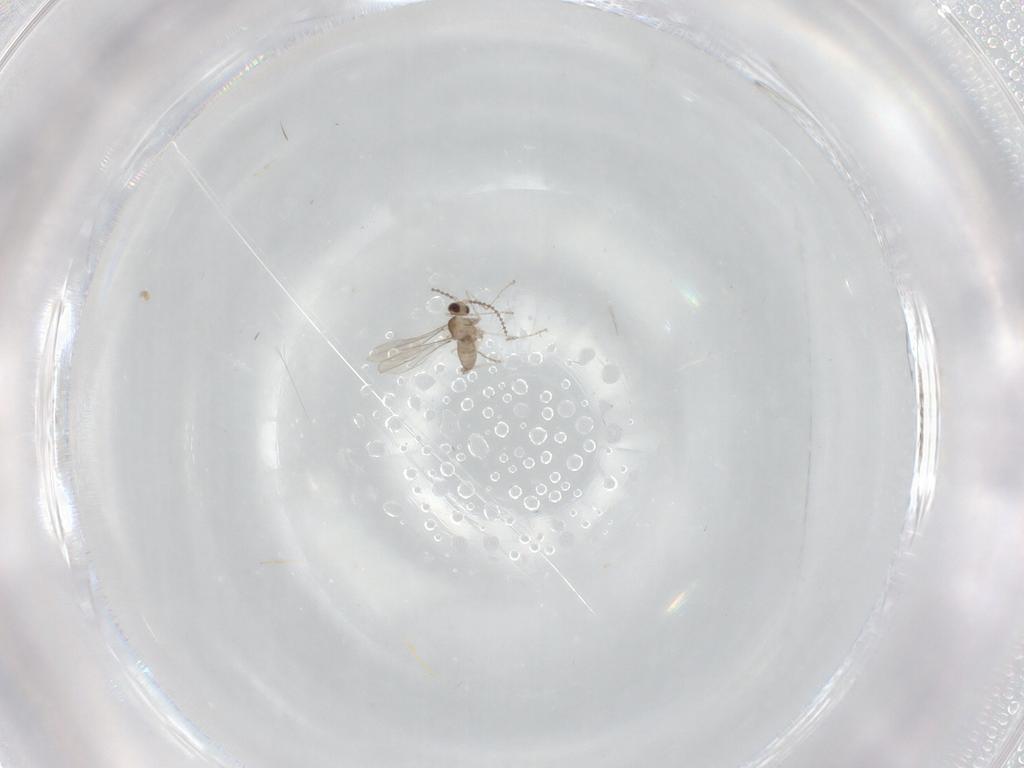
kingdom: Animalia
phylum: Arthropoda
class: Insecta
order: Diptera
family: Cecidomyiidae
